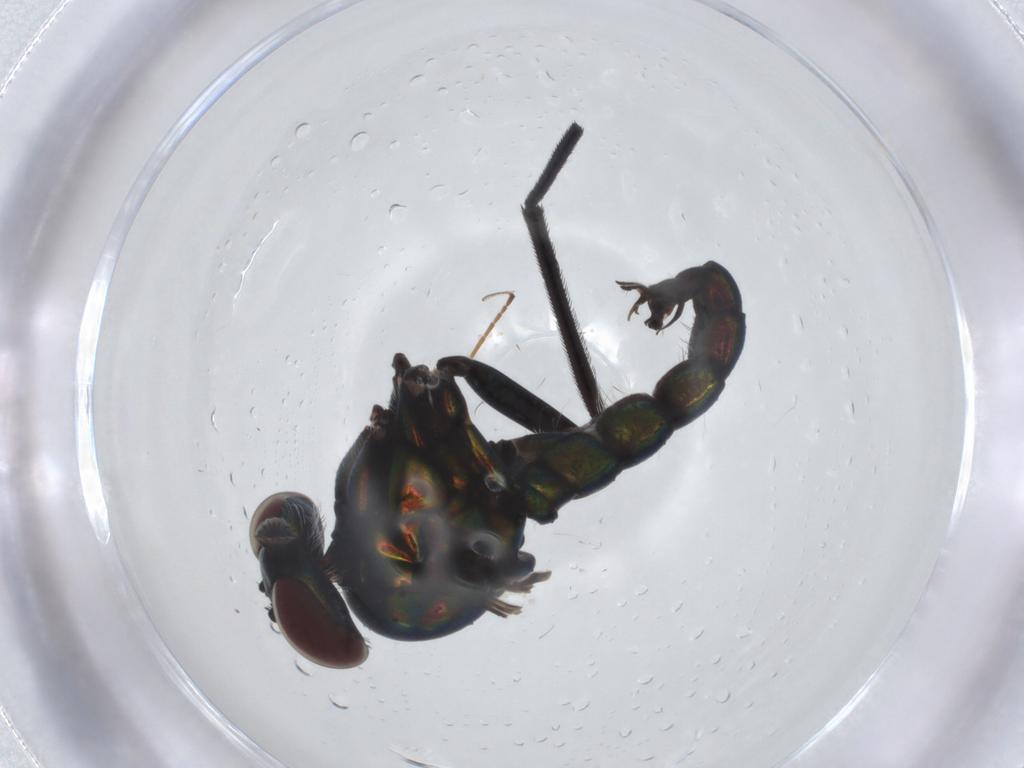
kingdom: Animalia
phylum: Arthropoda
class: Insecta
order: Diptera
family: Dolichopodidae
